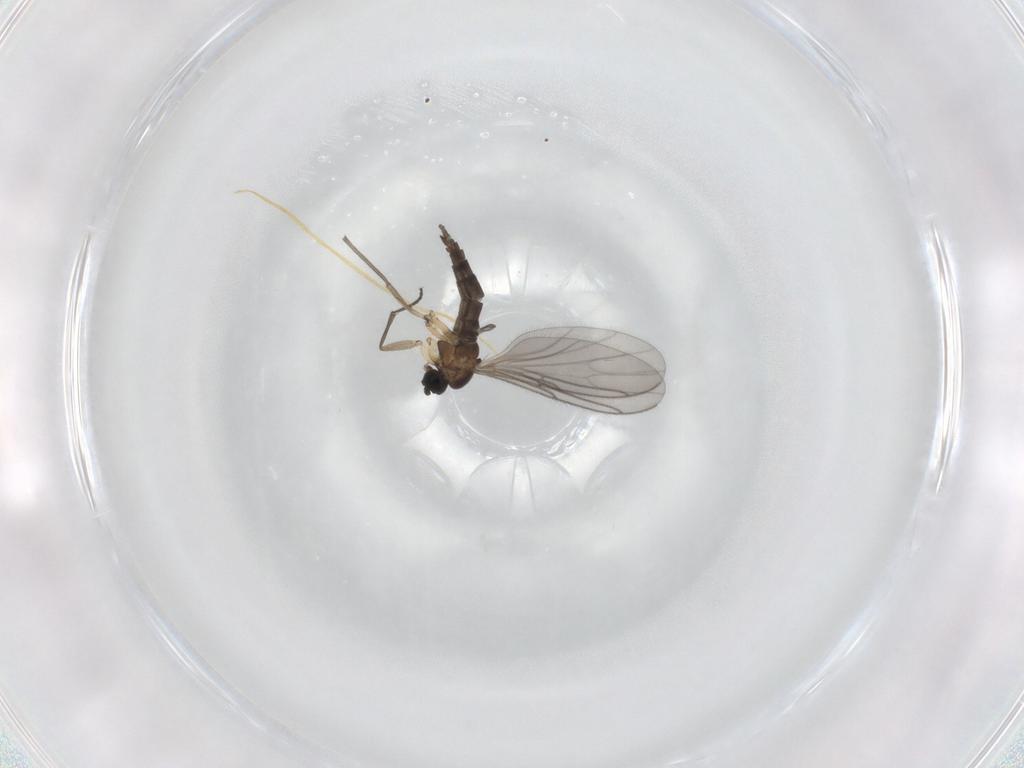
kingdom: Animalia
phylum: Arthropoda
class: Insecta
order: Diptera
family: Sciaridae
